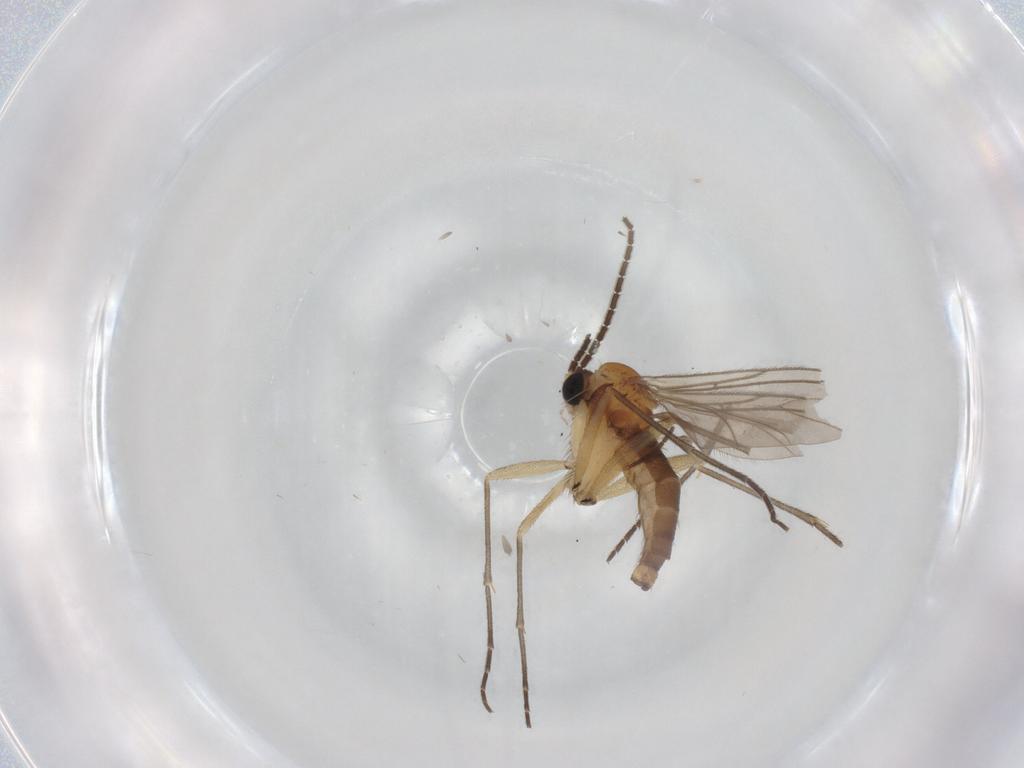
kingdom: Animalia
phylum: Arthropoda
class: Insecta
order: Diptera
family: Sciaridae
